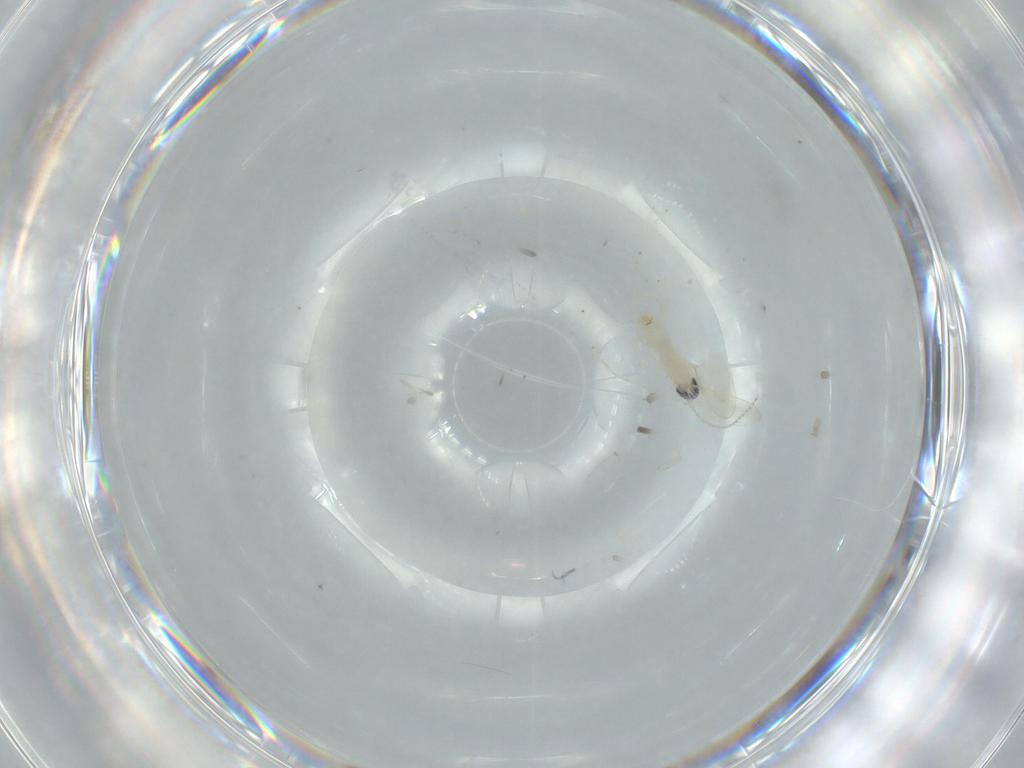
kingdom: Animalia
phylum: Arthropoda
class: Insecta
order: Diptera
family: Cecidomyiidae
